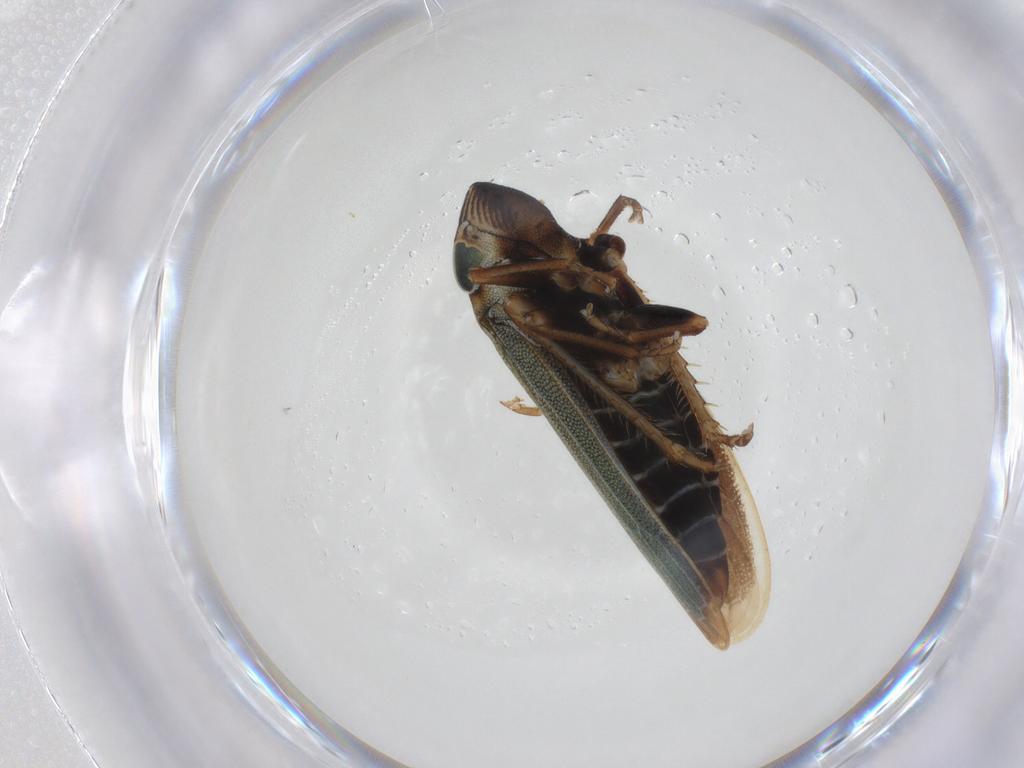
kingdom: Animalia
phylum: Arthropoda
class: Insecta
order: Hemiptera
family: Cicadellidae
